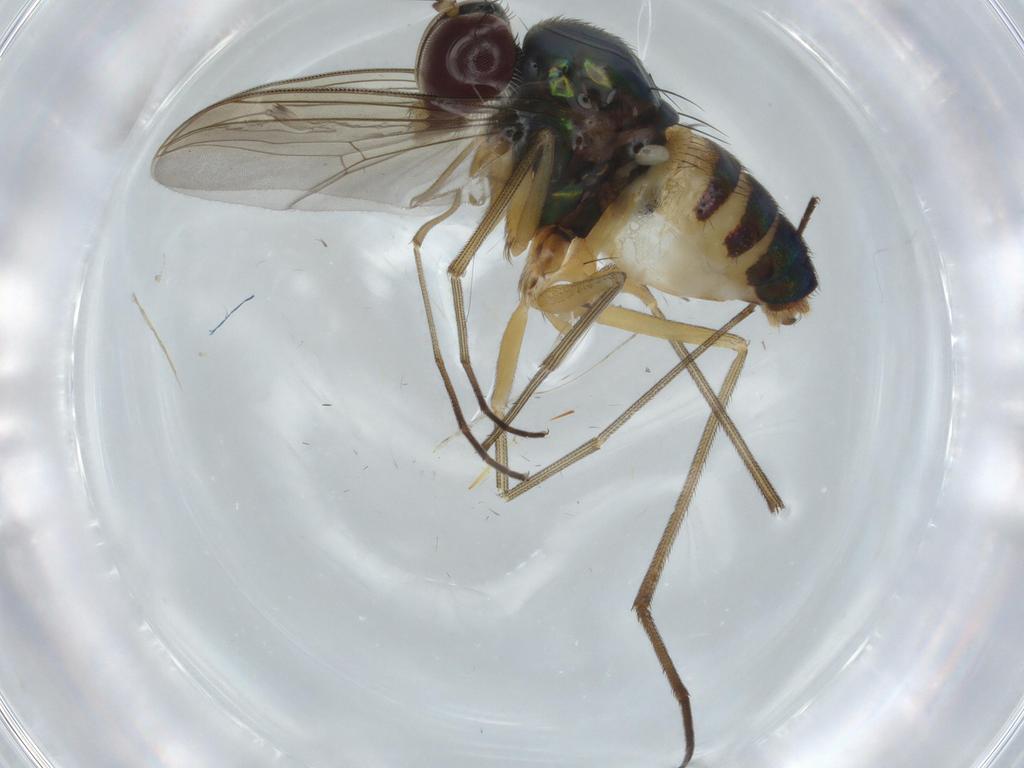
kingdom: Animalia
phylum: Arthropoda
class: Insecta
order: Diptera
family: Dolichopodidae
